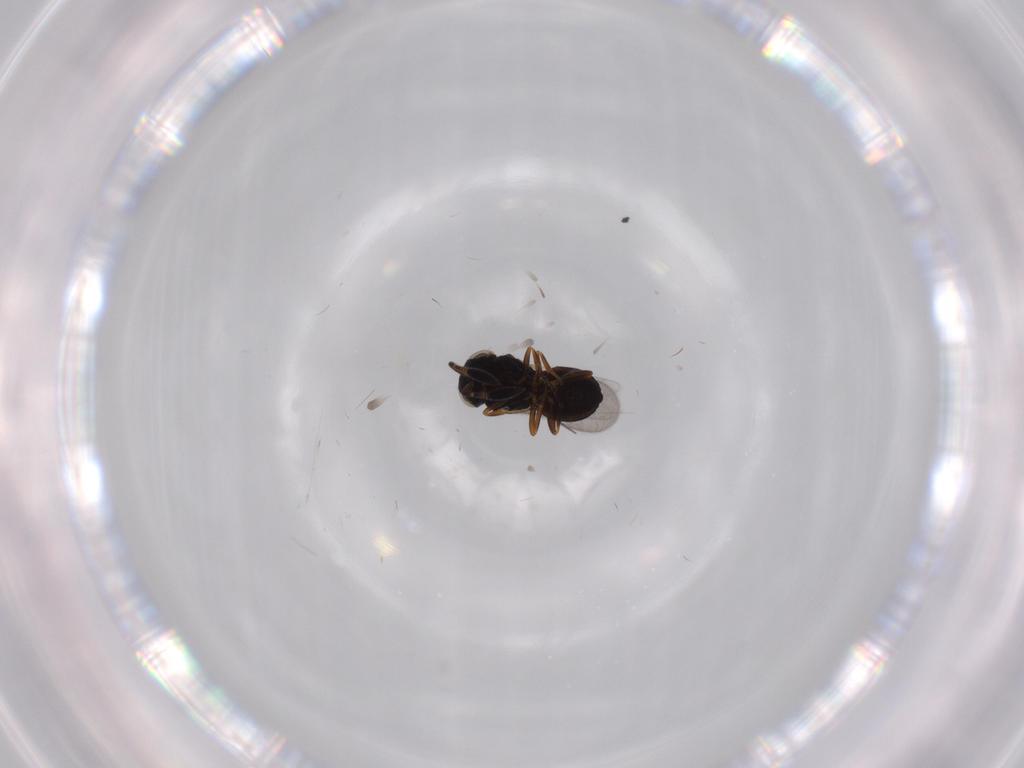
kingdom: Animalia
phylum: Arthropoda
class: Insecta
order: Hymenoptera
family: Scelionidae
